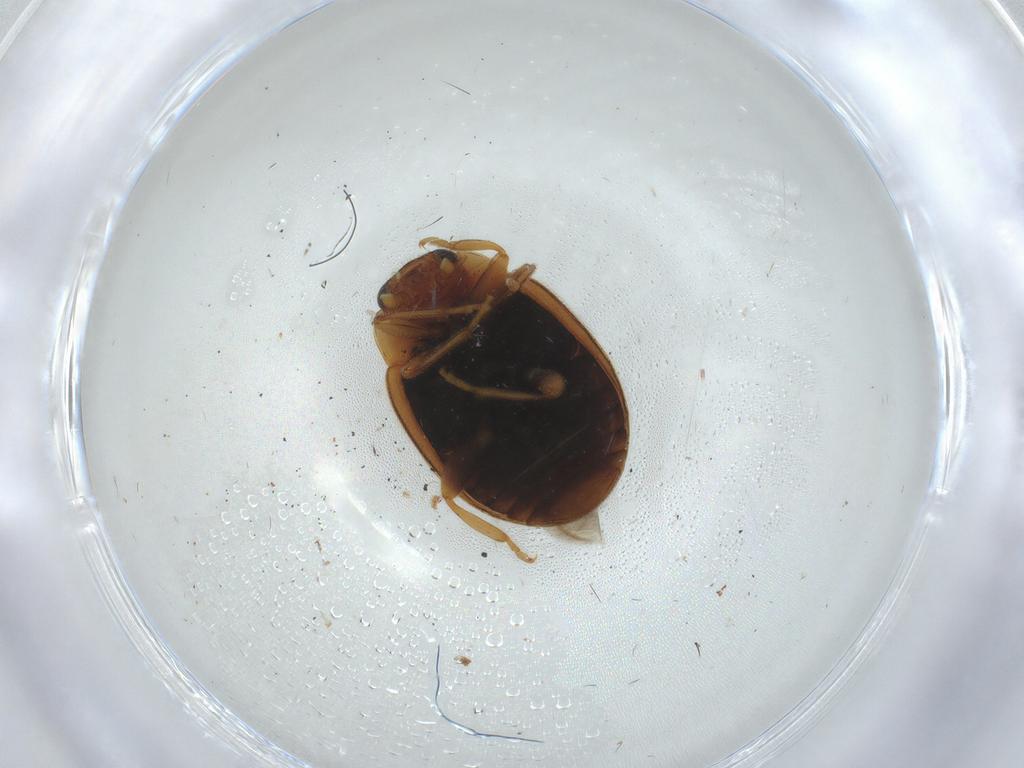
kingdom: Animalia
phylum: Arthropoda
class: Insecta
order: Coleoptera
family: Coccinellidae
